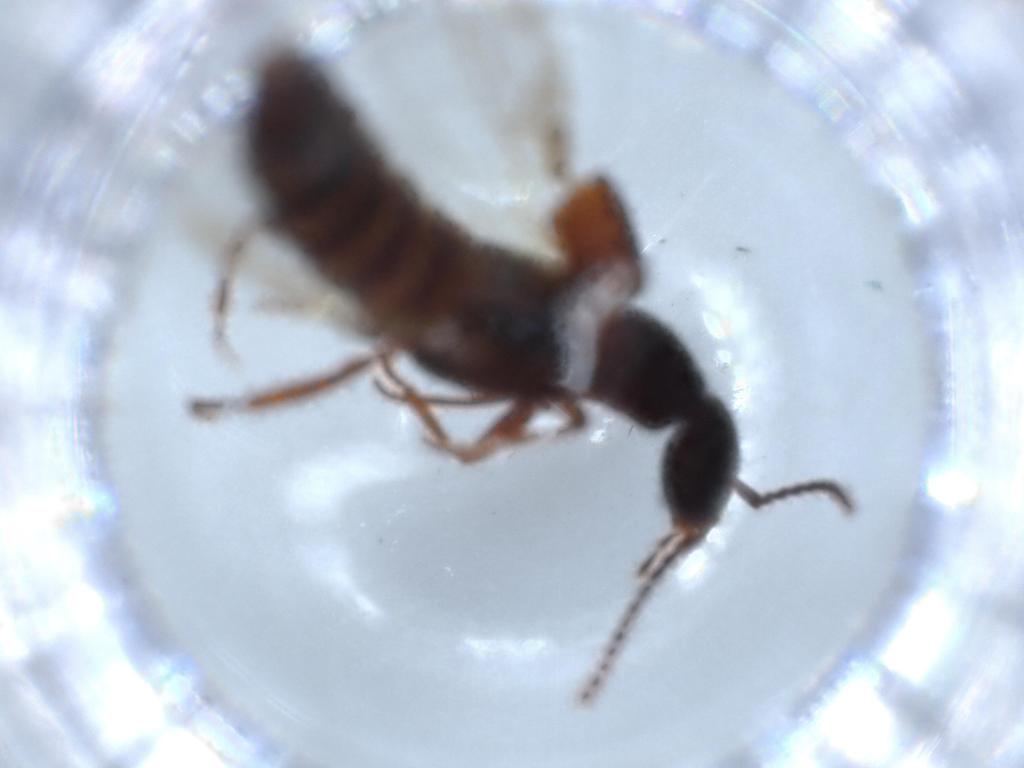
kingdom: Animalia
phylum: Arthropoda
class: Insecta
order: Coleoptera
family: Staphylinidae
